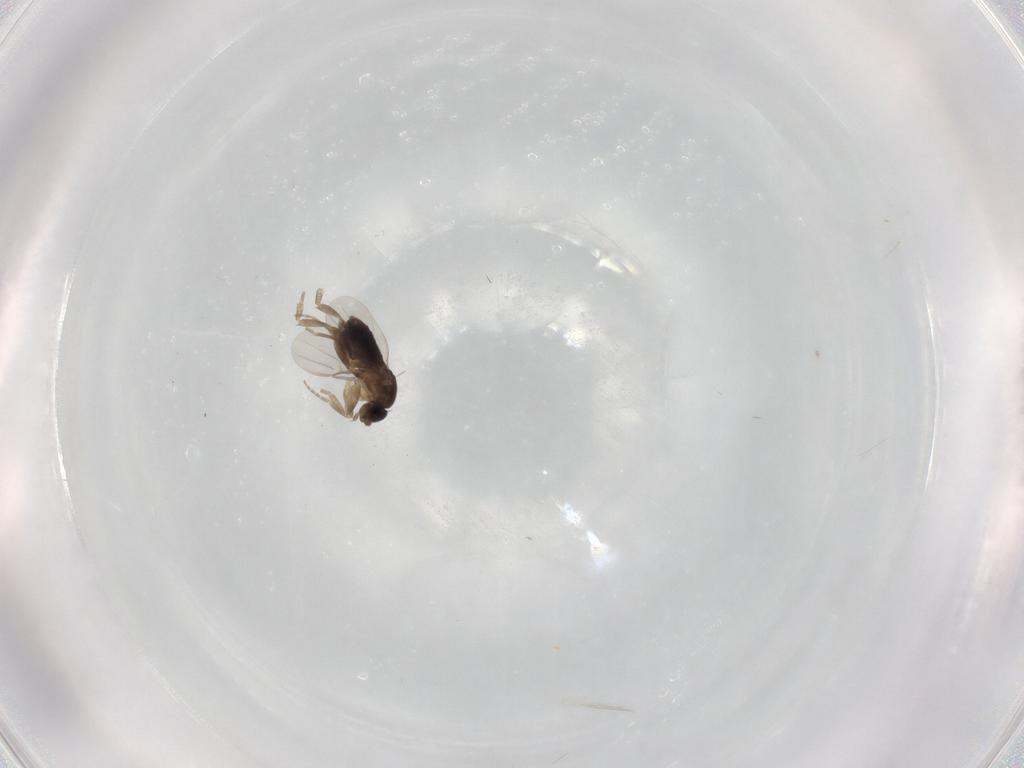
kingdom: Animalia
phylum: Arthropoda
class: Insecta
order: Diptera
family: Phoridae
